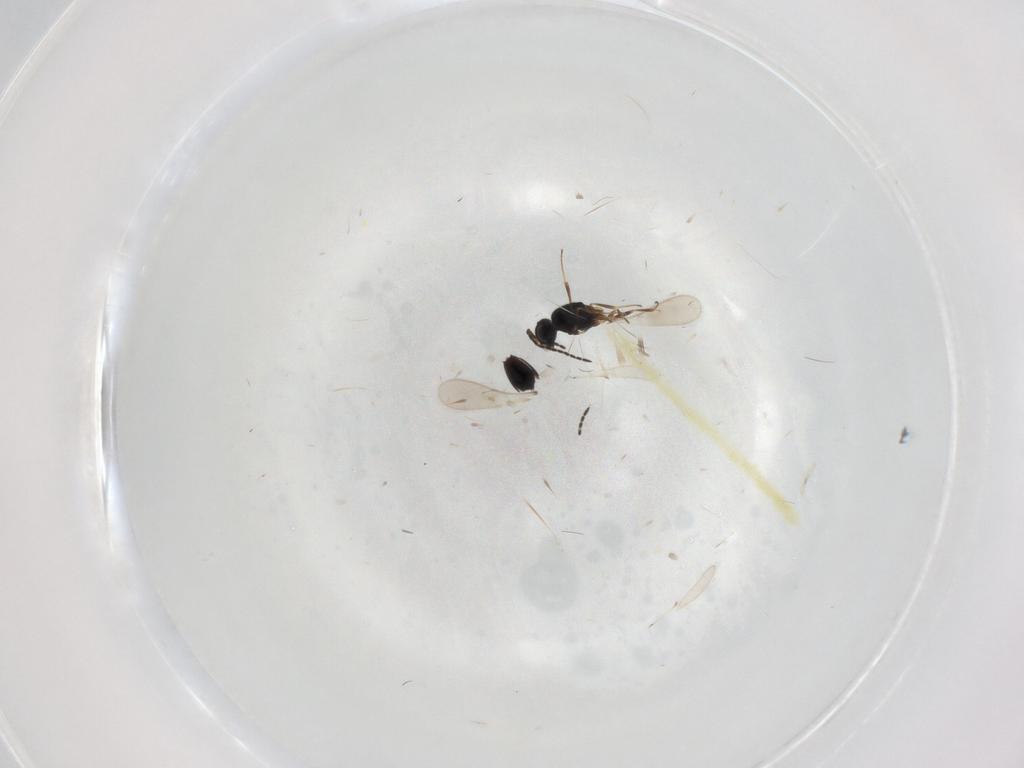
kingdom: Animalia
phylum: Arthropoda
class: Insecta
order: Hymenoptera
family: Scelionidae
